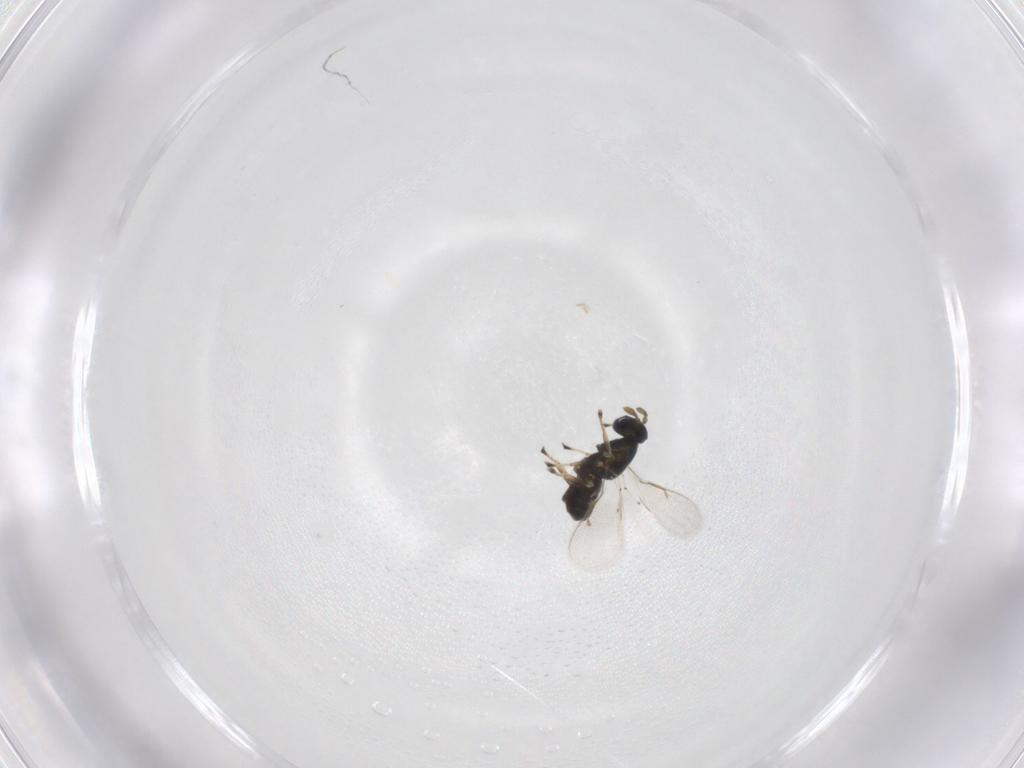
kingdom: Animalia
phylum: Arthropoda
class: Insecta
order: Hymenoptera
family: Eulophidae
